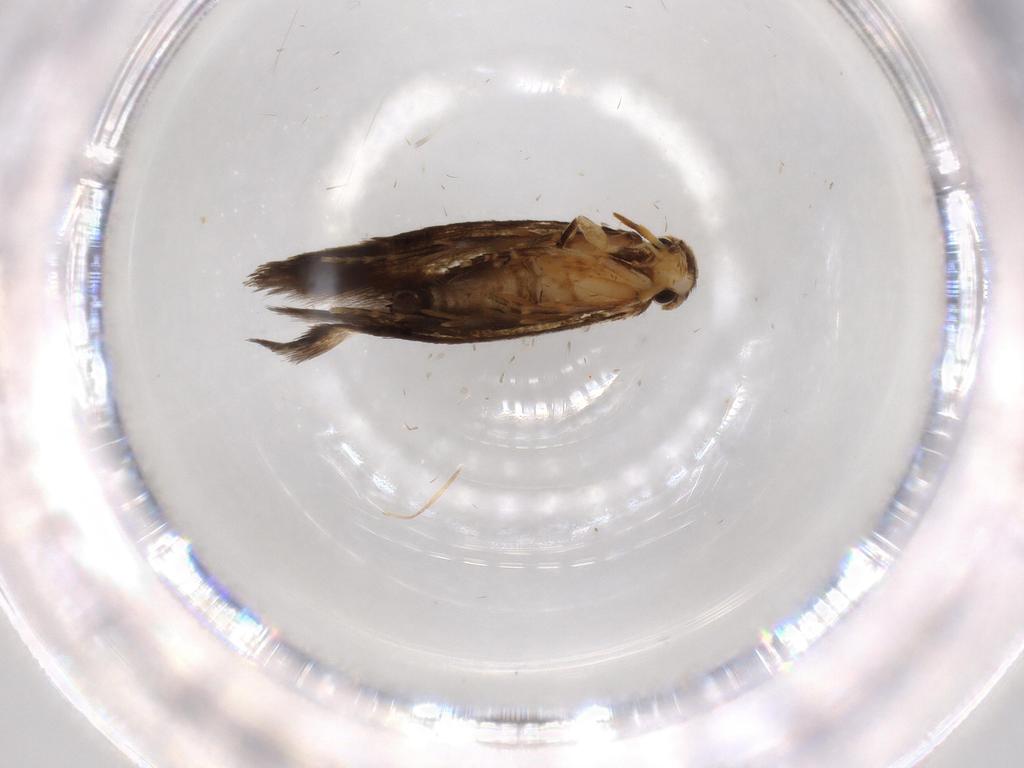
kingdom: Animalia
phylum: Arthropoda
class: Insecta
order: Lepidoptera
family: Tineidae
